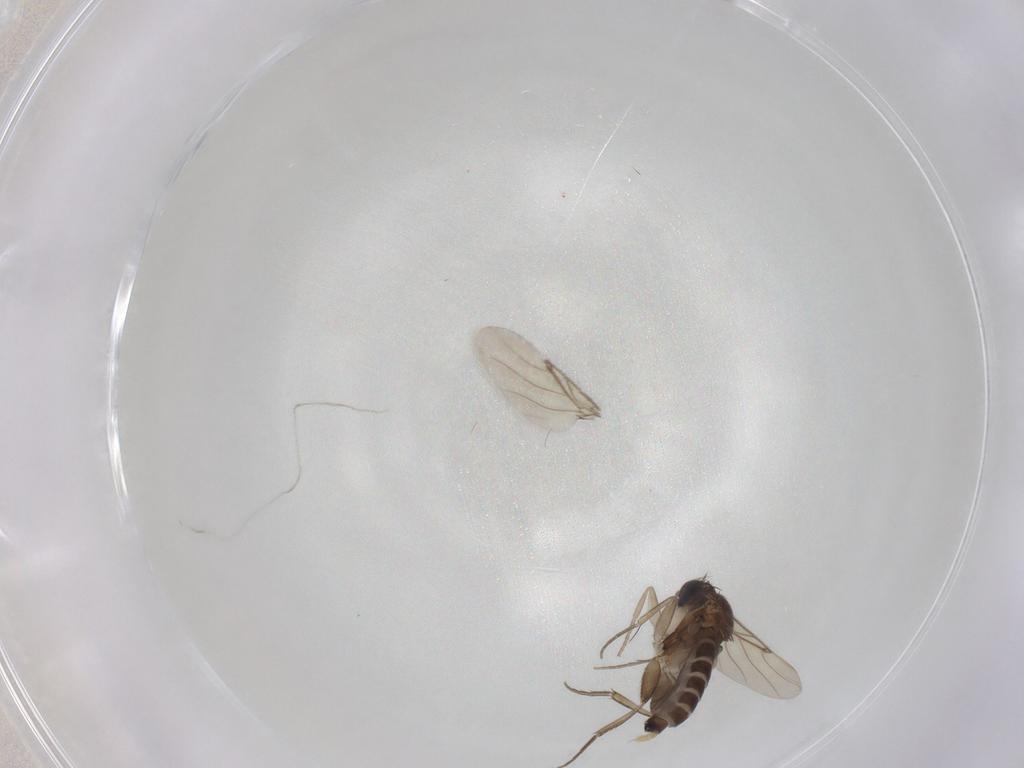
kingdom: Animalia
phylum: Arthropoda
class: Insecta
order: Diptera
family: Phoridae
